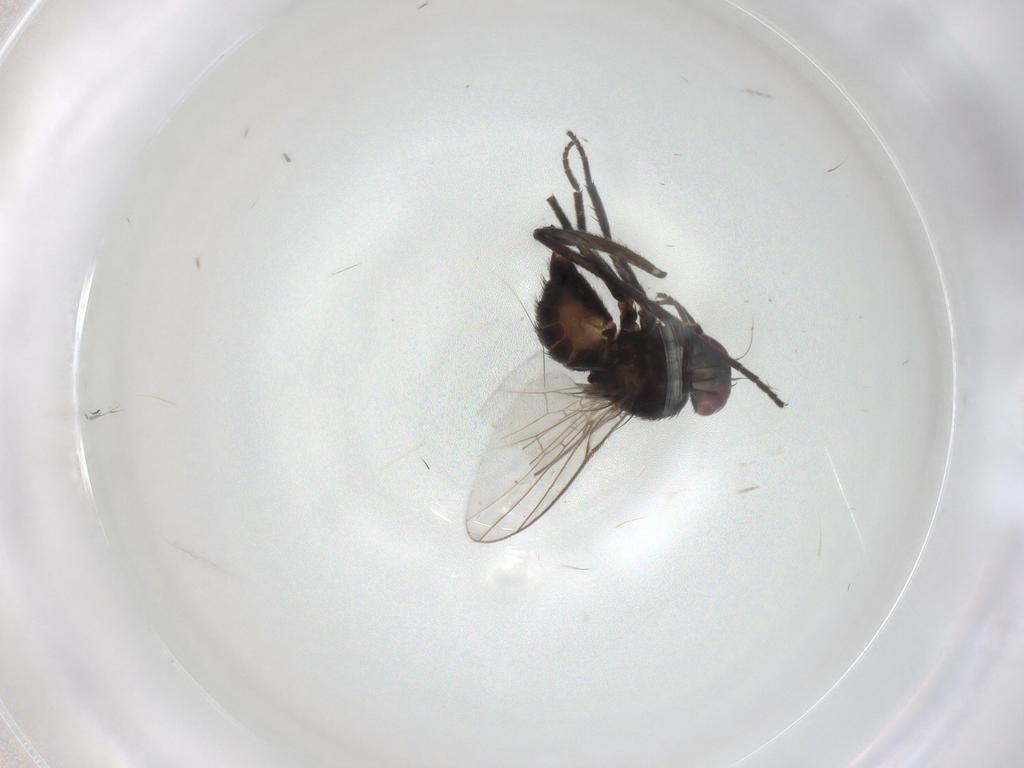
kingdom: Animalia
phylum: Arthropoda
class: Insecta
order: Diptera
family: Sciaridae
